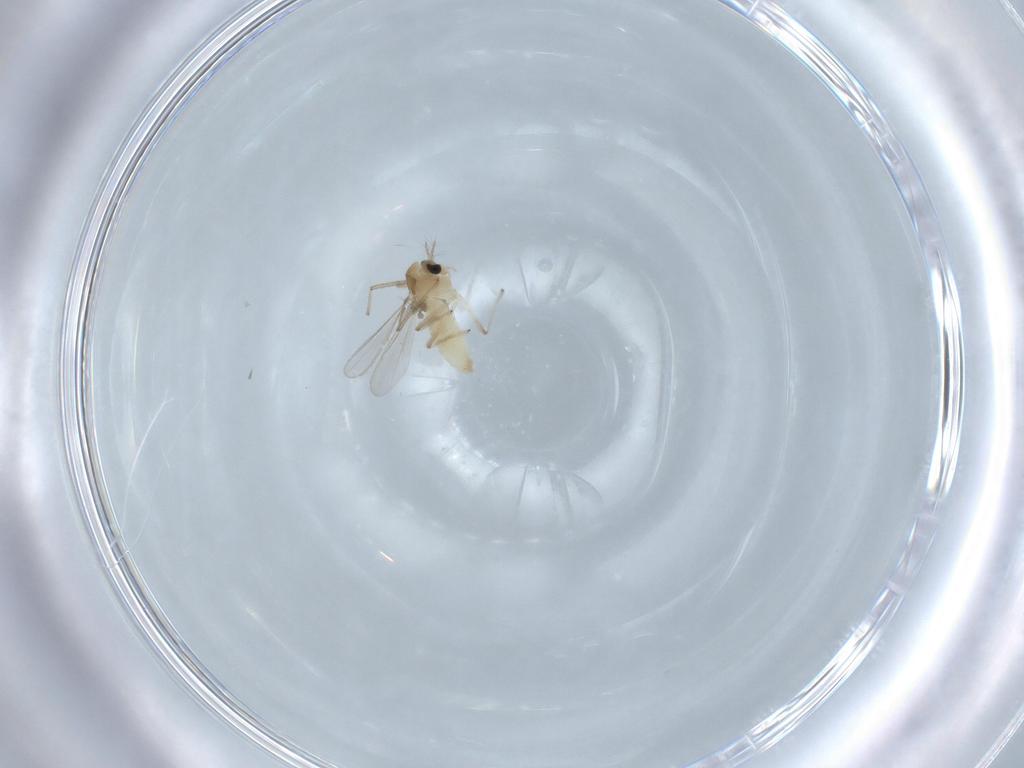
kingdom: Animalia
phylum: Arthropoda
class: Insecta
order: Diptera
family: Chironomidae
